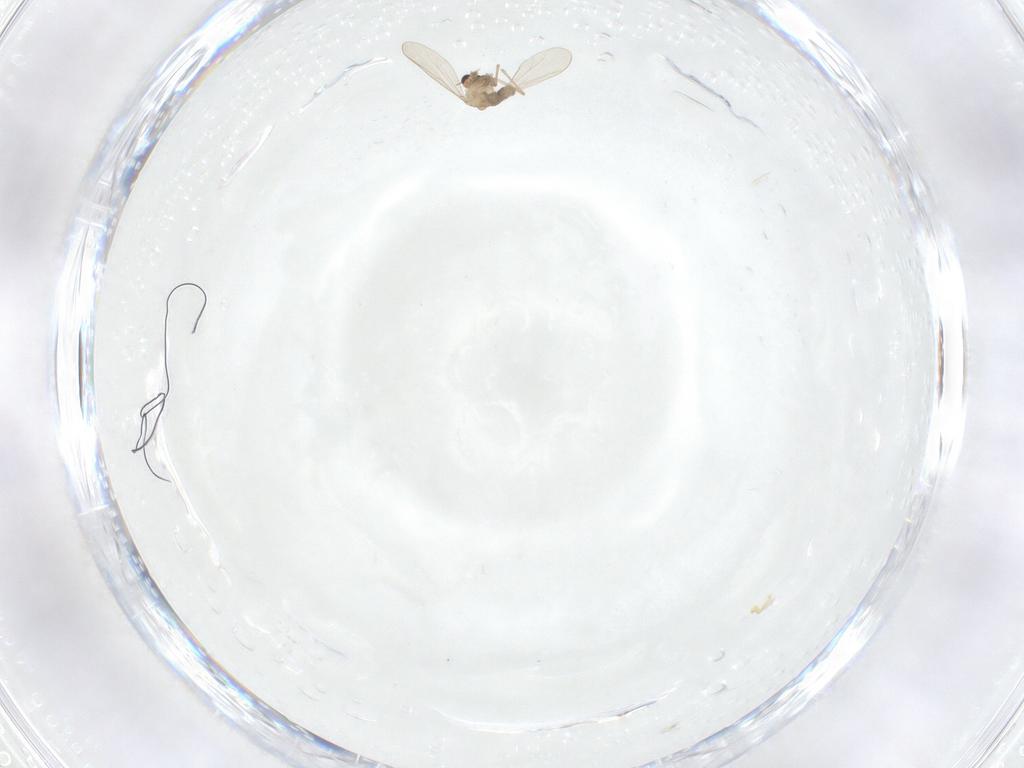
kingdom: Animalia
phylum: Arthropoda
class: Insecta
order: Diptera
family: Chironomidae
